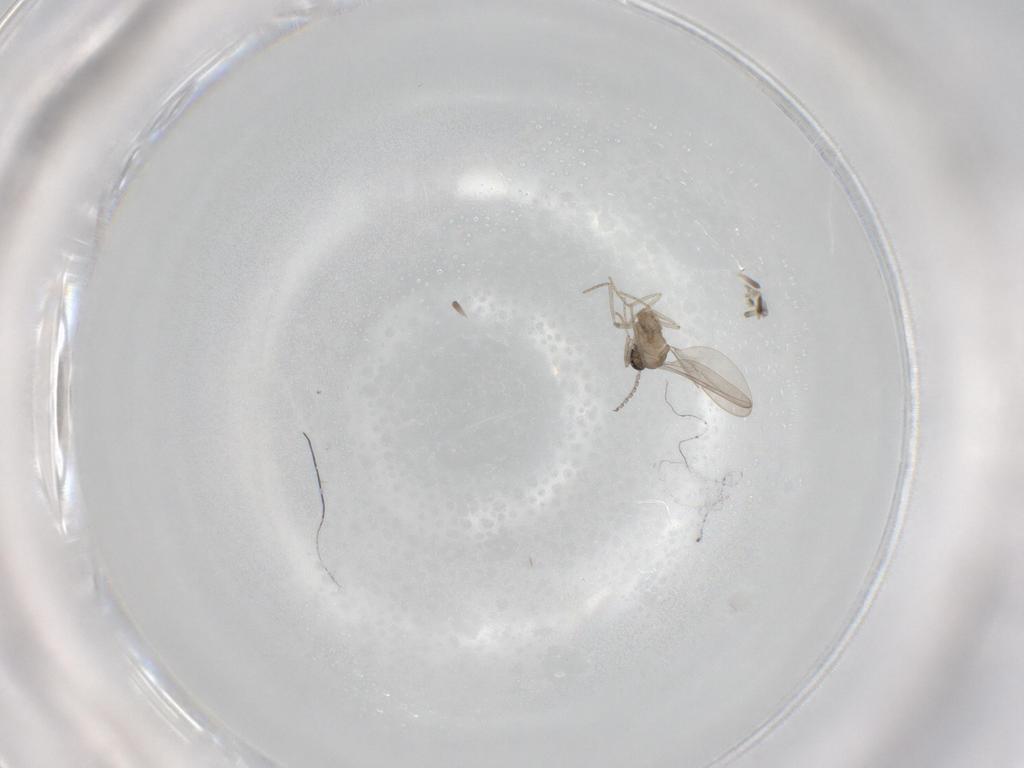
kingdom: Animalia
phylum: Arthropoda
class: Insecta
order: Diptera
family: Cecidomyiidae
